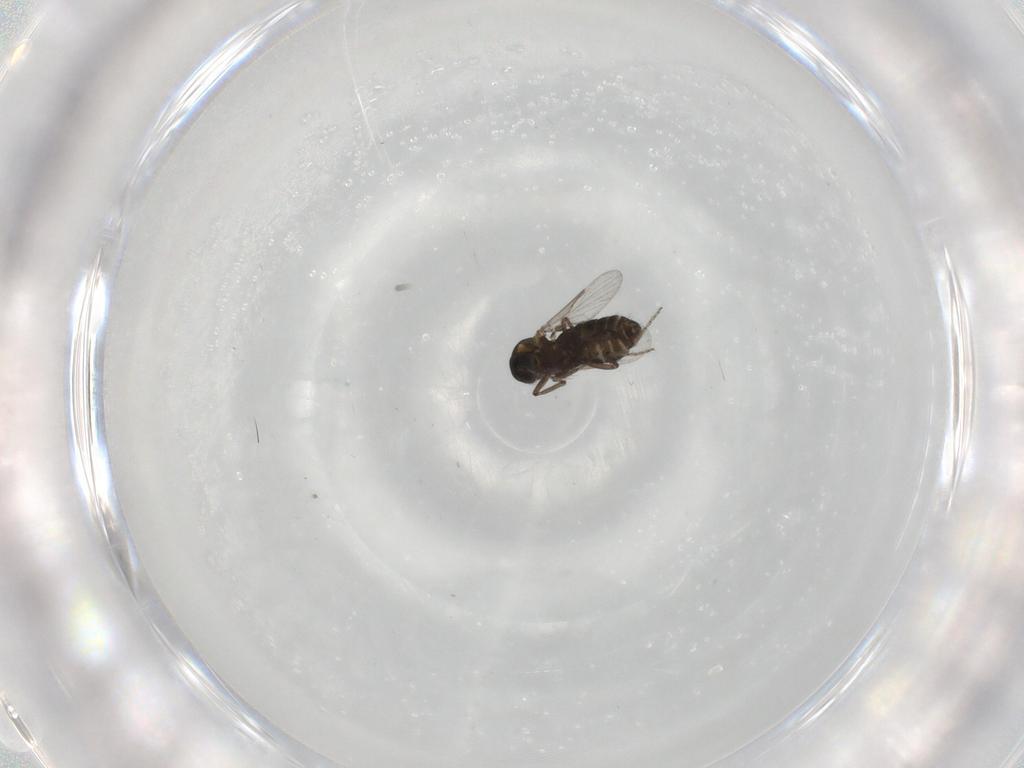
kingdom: Animalia
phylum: Arthropoda
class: Insecta
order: Diptera
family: Ceratopogonidae
